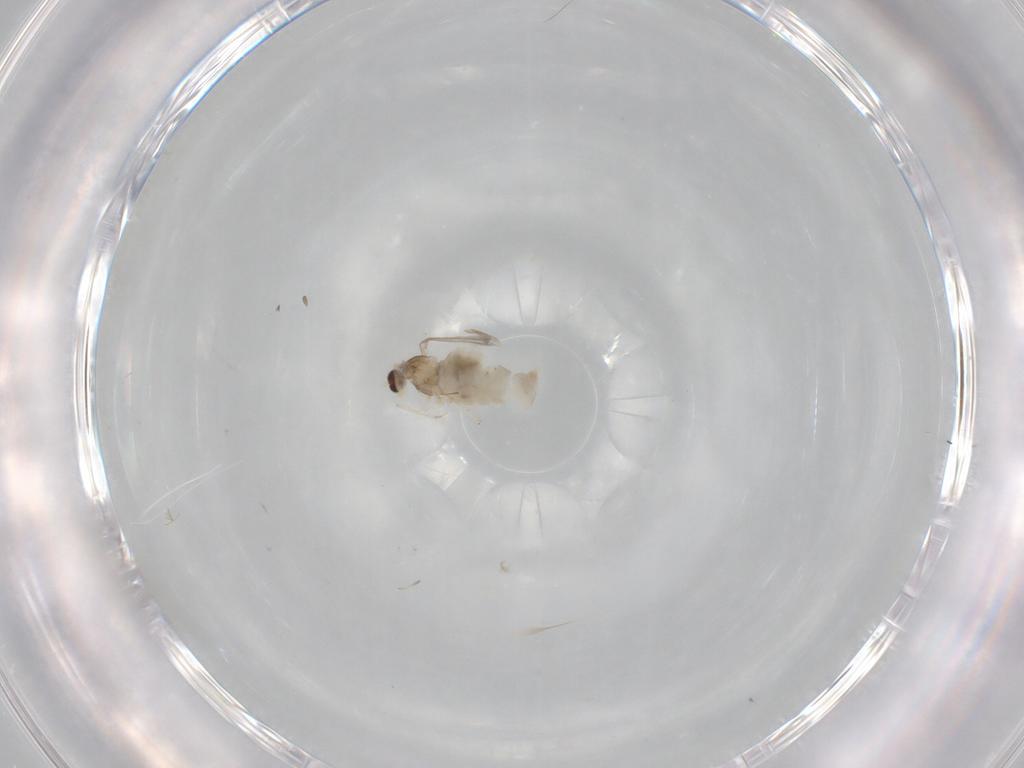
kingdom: Animalia
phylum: Arthropoda
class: Insecta
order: Diptera
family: Cecidomyiidae
